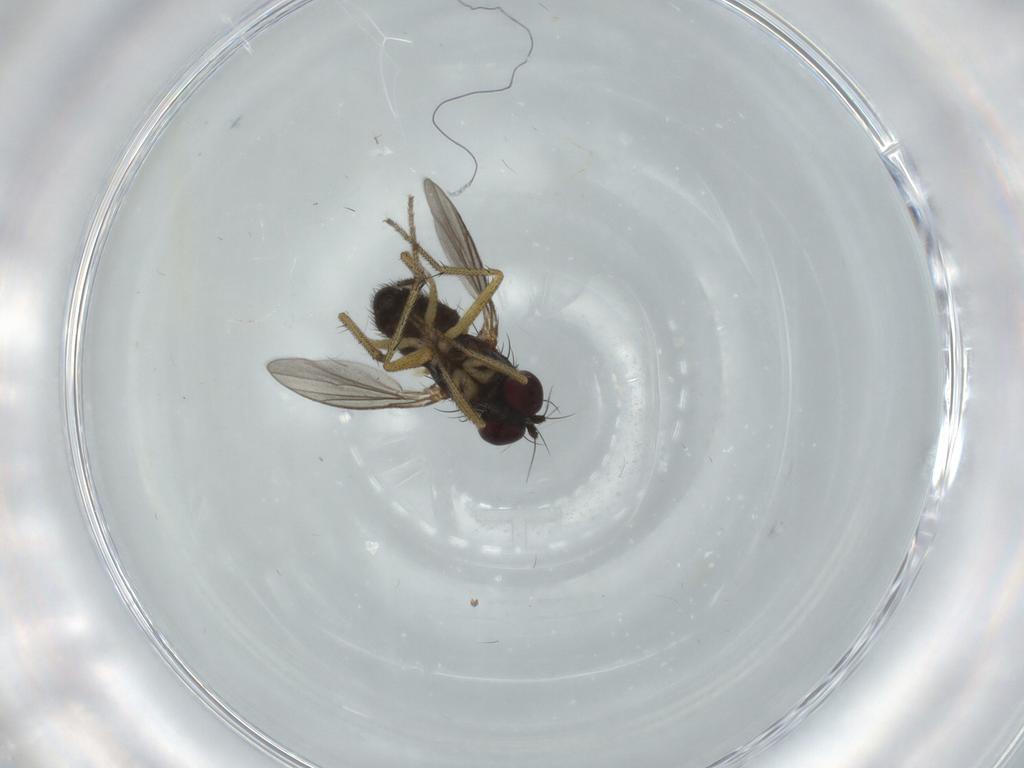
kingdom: Animalia
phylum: Arthropoda
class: Insecta
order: Diptera
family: Dolichopodidae
